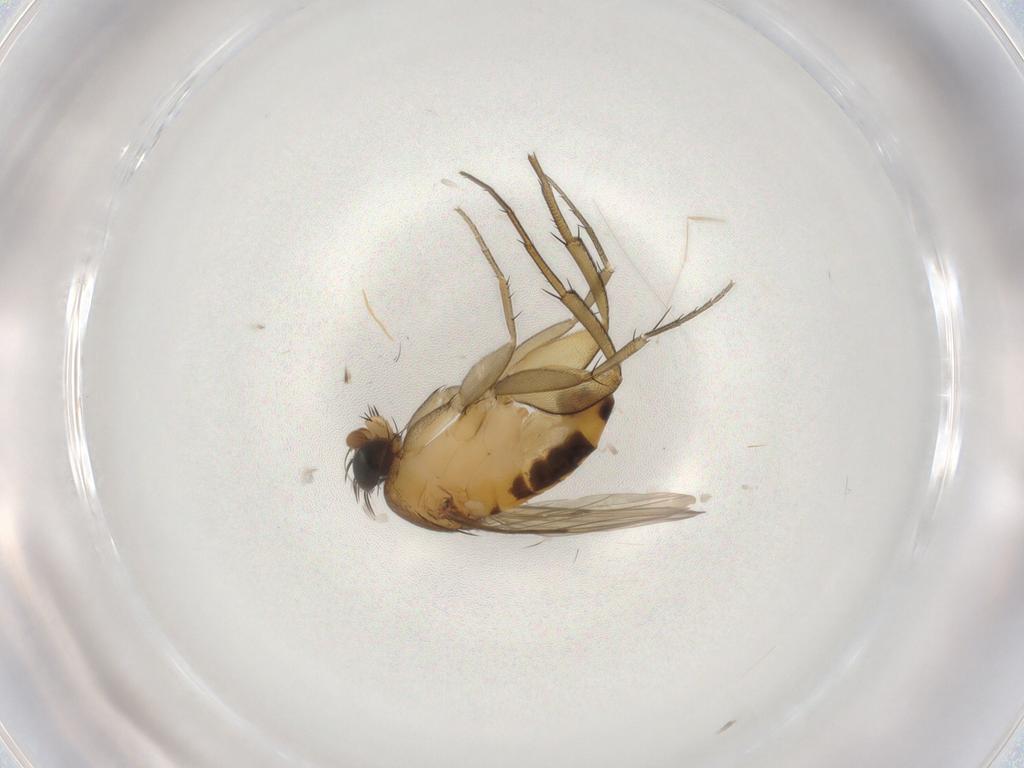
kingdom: Animalia
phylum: Arthropoda
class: Insecta
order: Diptera
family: Phoridae
